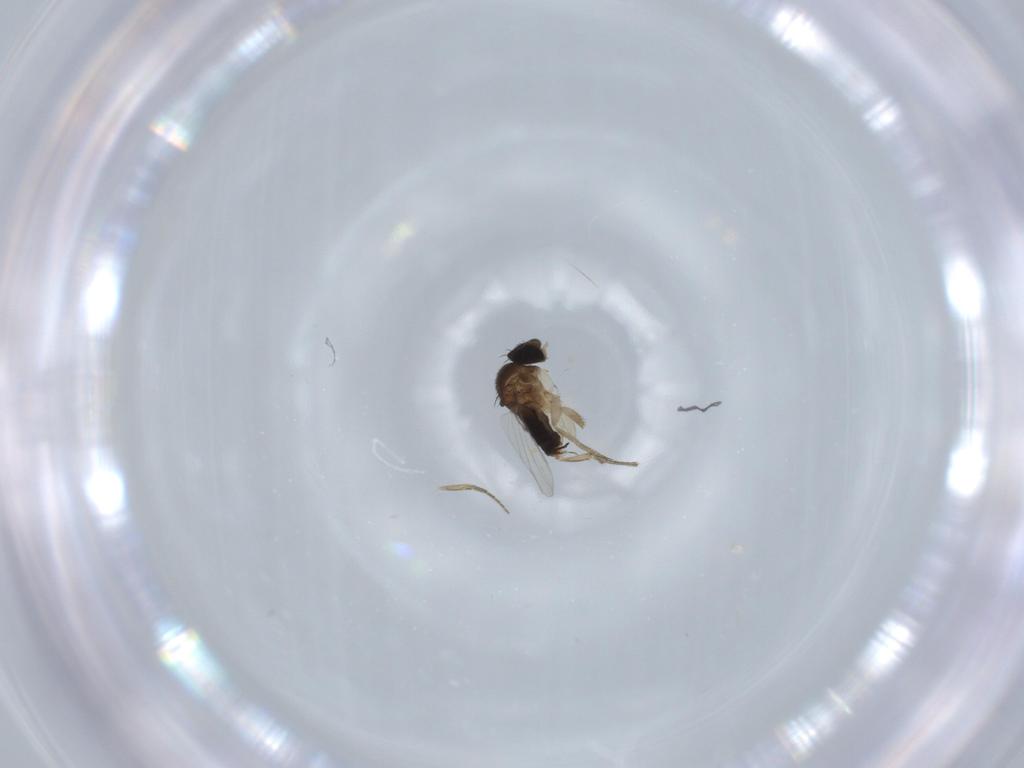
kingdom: Animalia
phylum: Arthropoda
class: Insecta
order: Diptera
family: Phoridae
